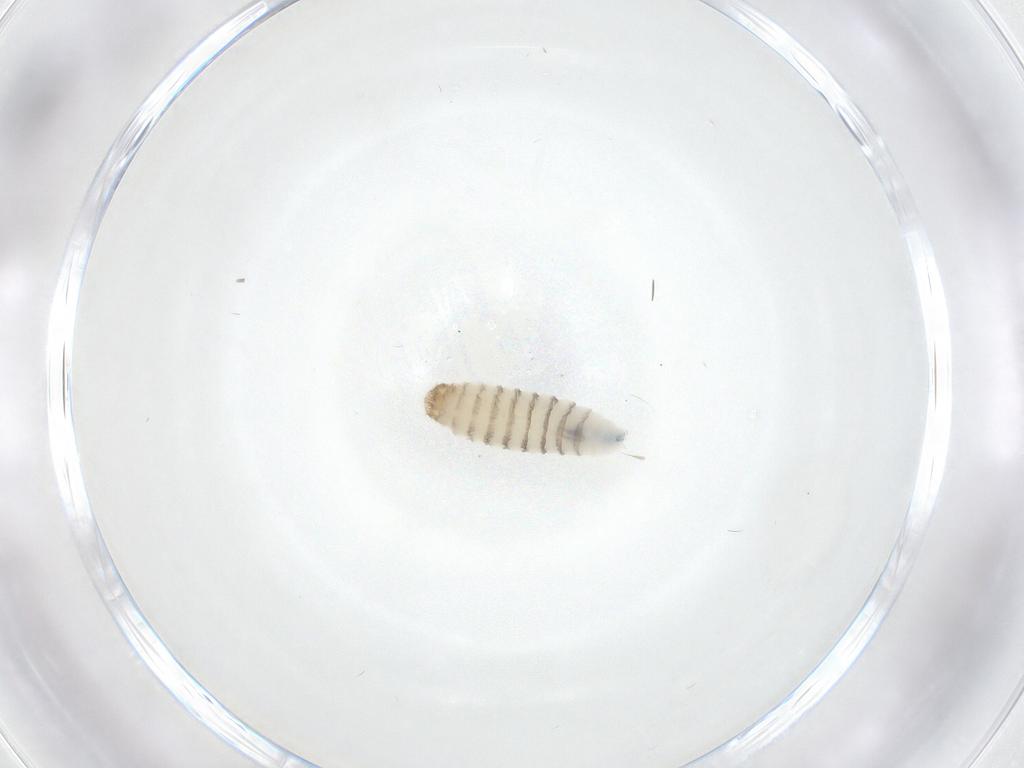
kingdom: Animalia
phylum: Arthropoda
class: Insecta
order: Diptera
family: Sarcophagidae
